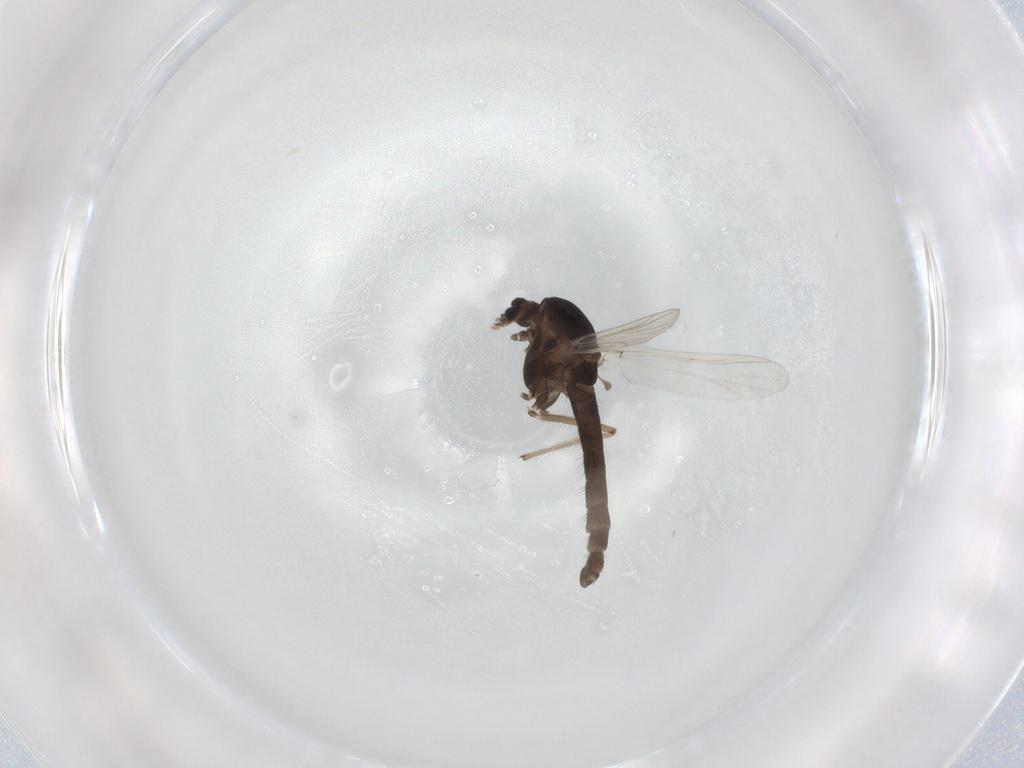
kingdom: Animalia
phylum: Arthropoda
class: Insecta
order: Diptera
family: Chironomidae
